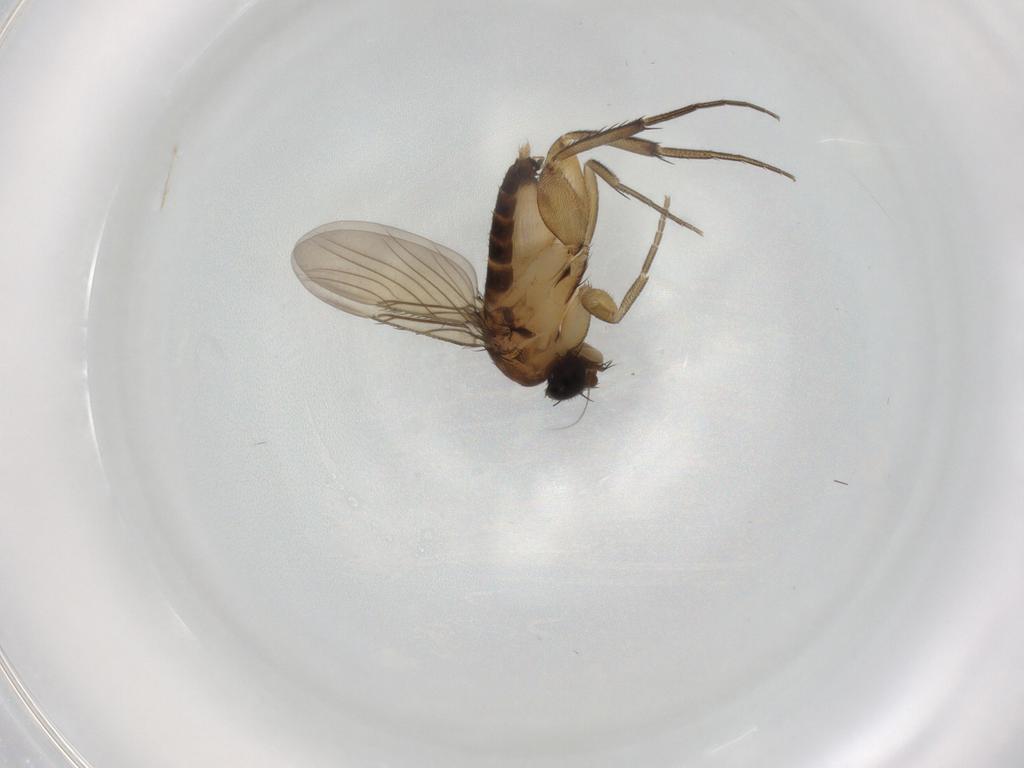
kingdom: Animalia
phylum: Arthropoda
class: Insecta
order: Diptera
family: Phoridae
